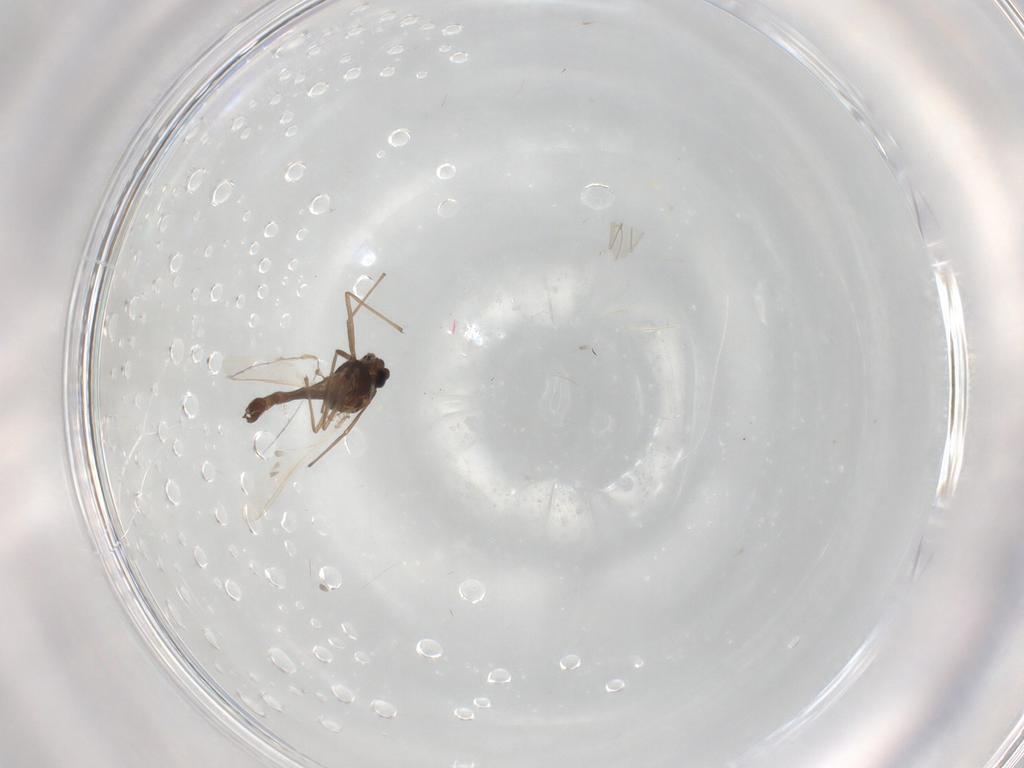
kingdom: Animalia
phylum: Arthropoda
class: Insecta
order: Diptera
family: Chironomidae
